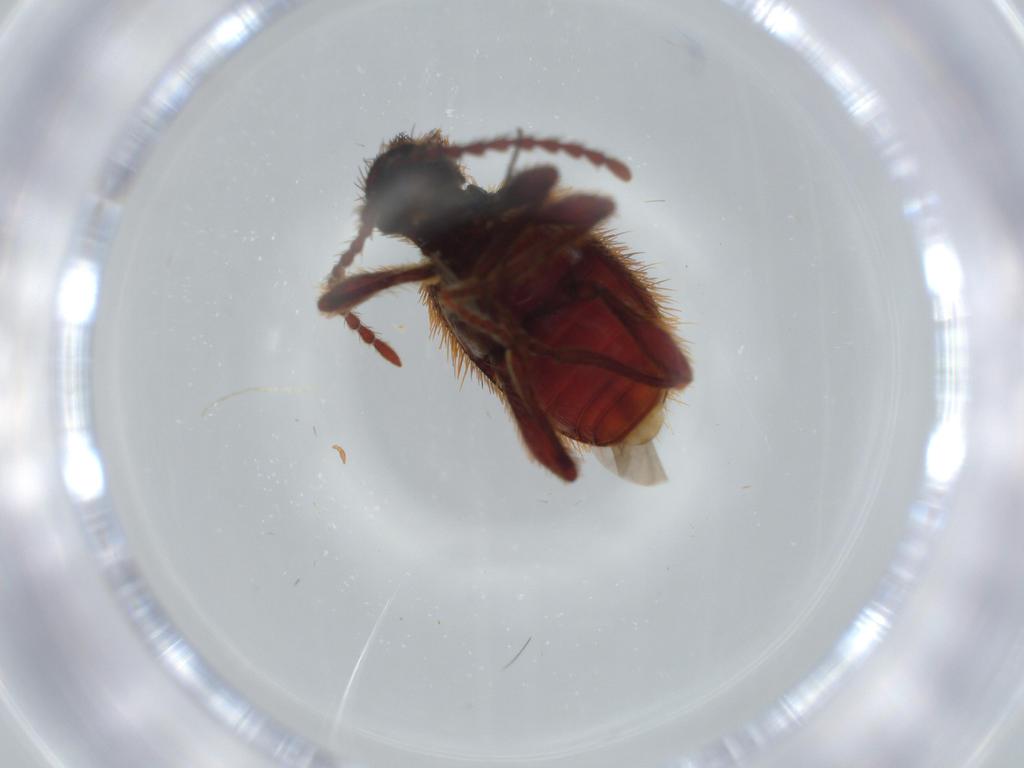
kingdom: Animalia
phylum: Arthropoda
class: Insecta
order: Coleoptera
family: Ptinidae
